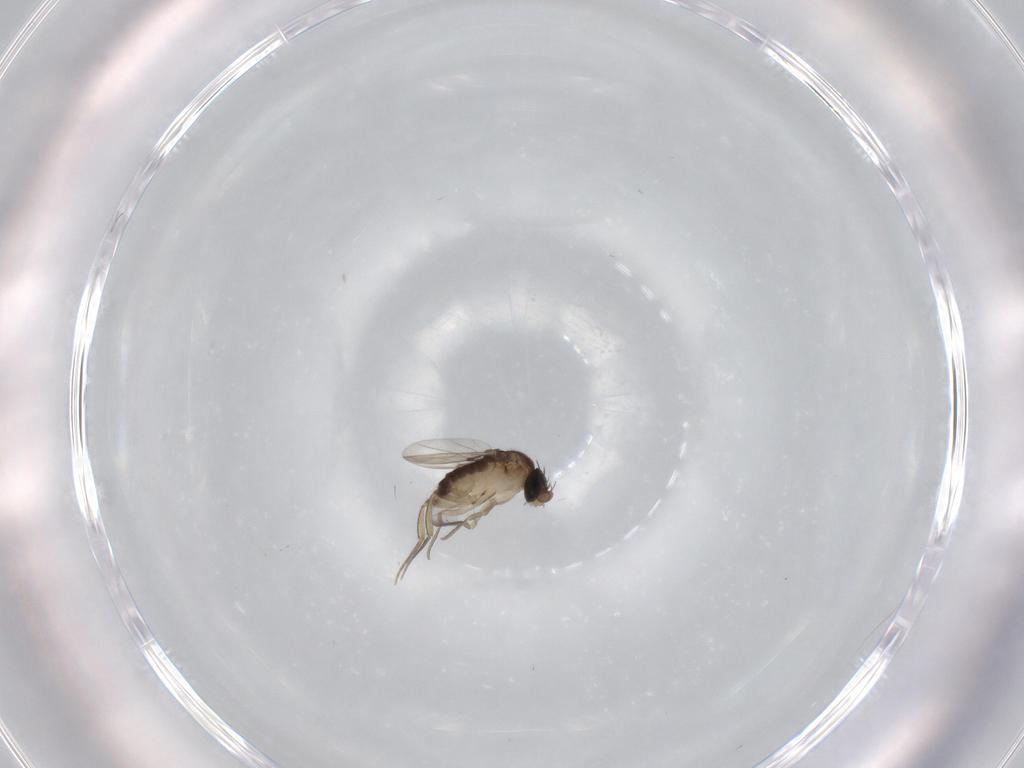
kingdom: Animalia
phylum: Arthropoda
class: Insecta
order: Diptera
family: Phoridae
